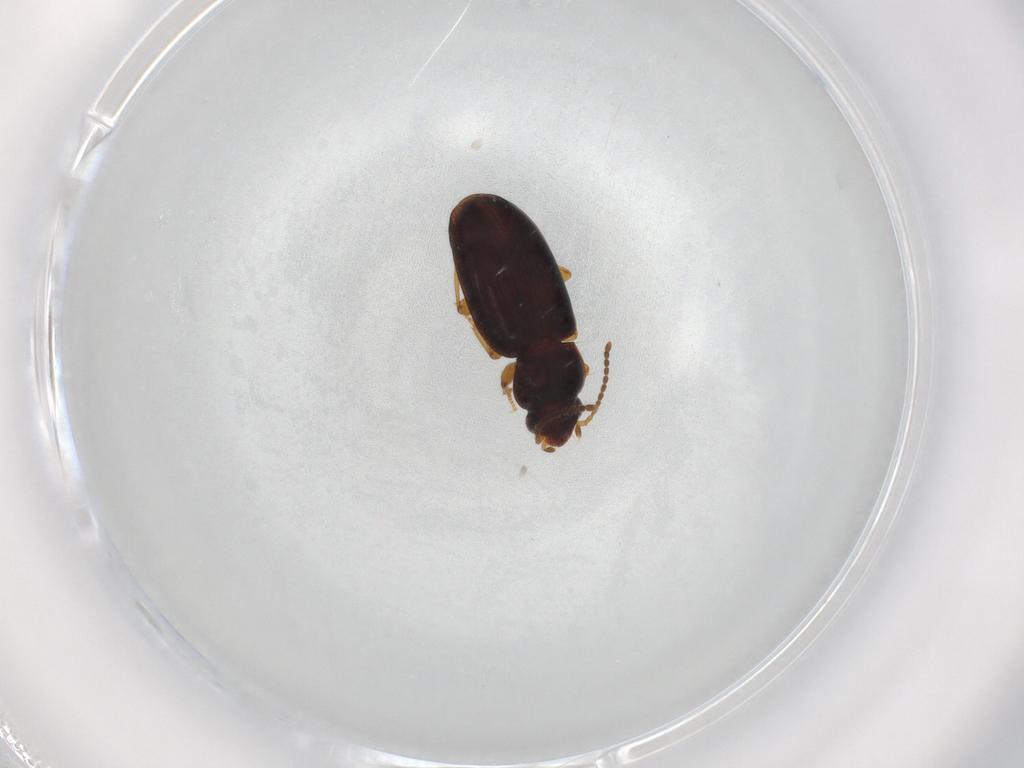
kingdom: Animalia
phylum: Arthropoda
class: Insecta
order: Coleoptera
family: Carabidae
